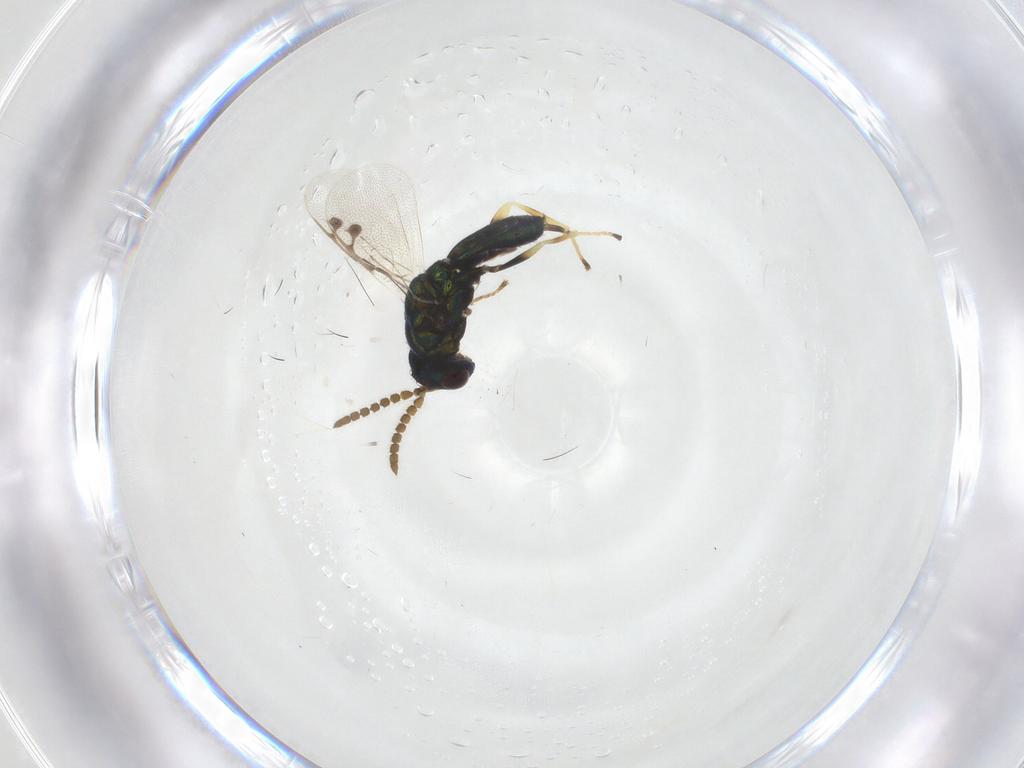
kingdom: Animalia
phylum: Arthropoda
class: Insecta
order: Hymenoptera
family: Pirenidae
